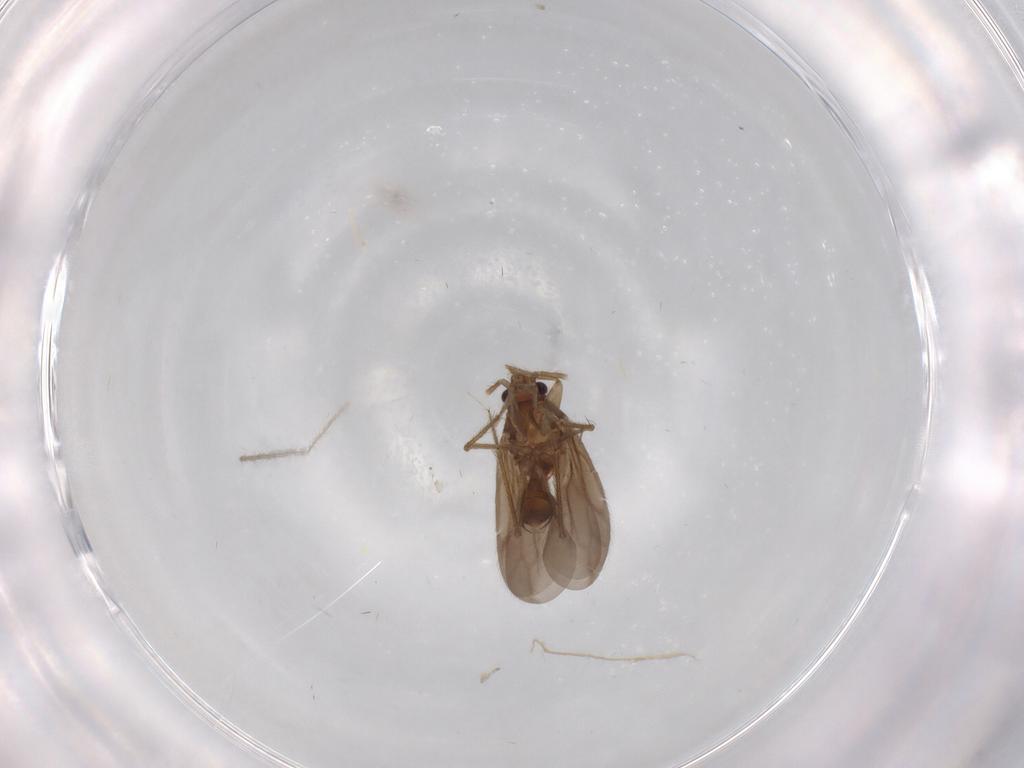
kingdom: Animalia
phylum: Arthropoda
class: Insecta
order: Hemiptera
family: Ceratocombidae
